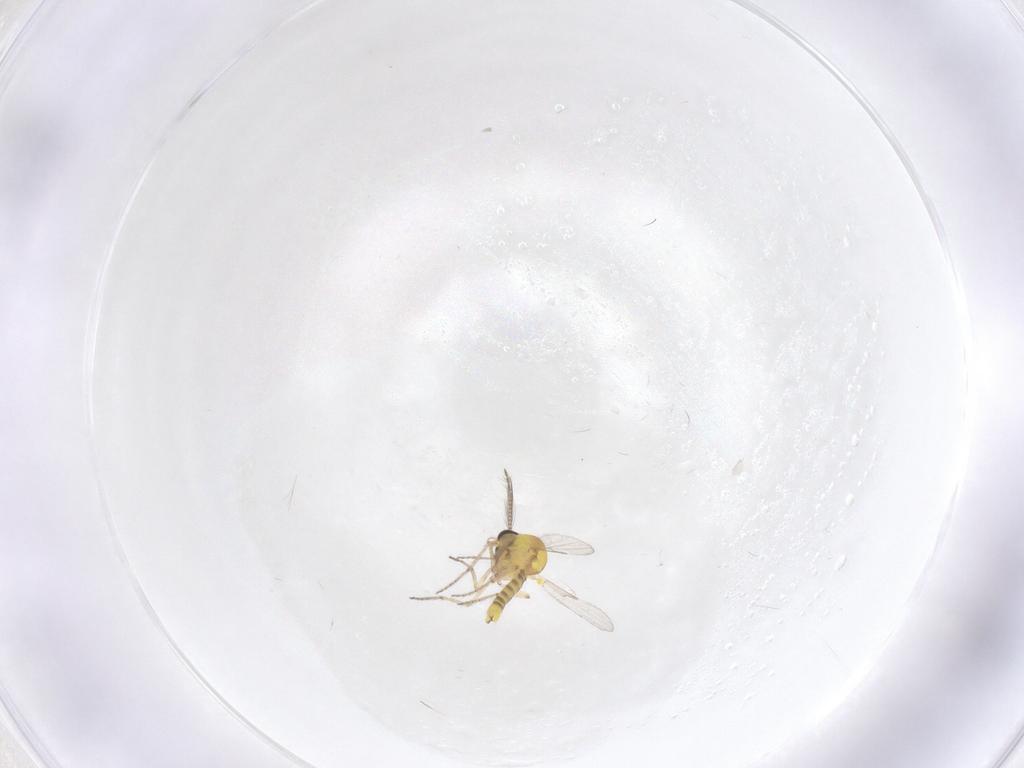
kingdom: Animalia
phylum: Arthropoda
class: Insecta
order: Diptera
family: Ceratopogonidae
